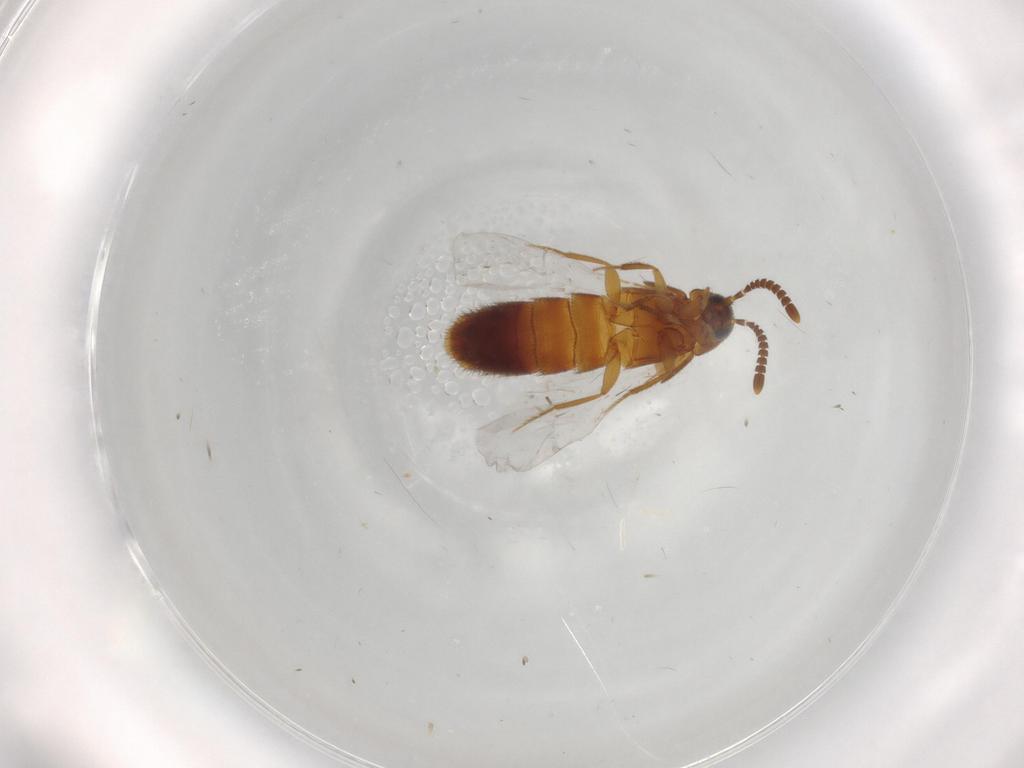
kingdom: Animalia
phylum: Arthropoda
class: Insecta
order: Coleoptera
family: Staphylinidae
